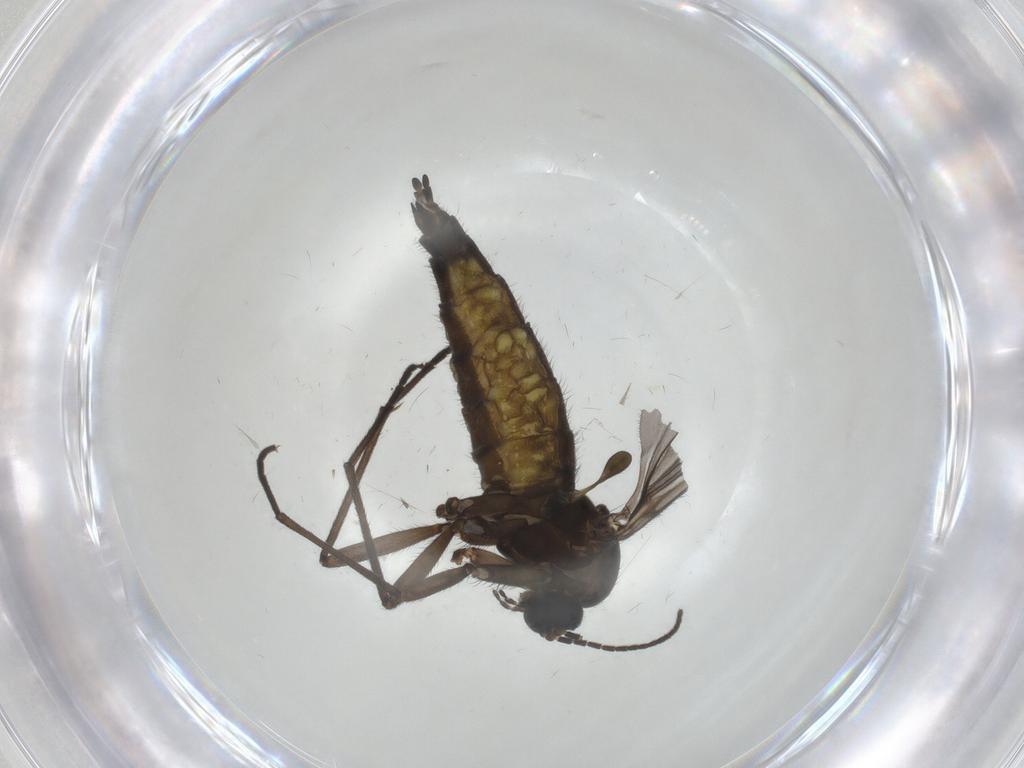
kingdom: Animalia
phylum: Arthropoda
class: Insecta
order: Diptera
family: Sciaridae
